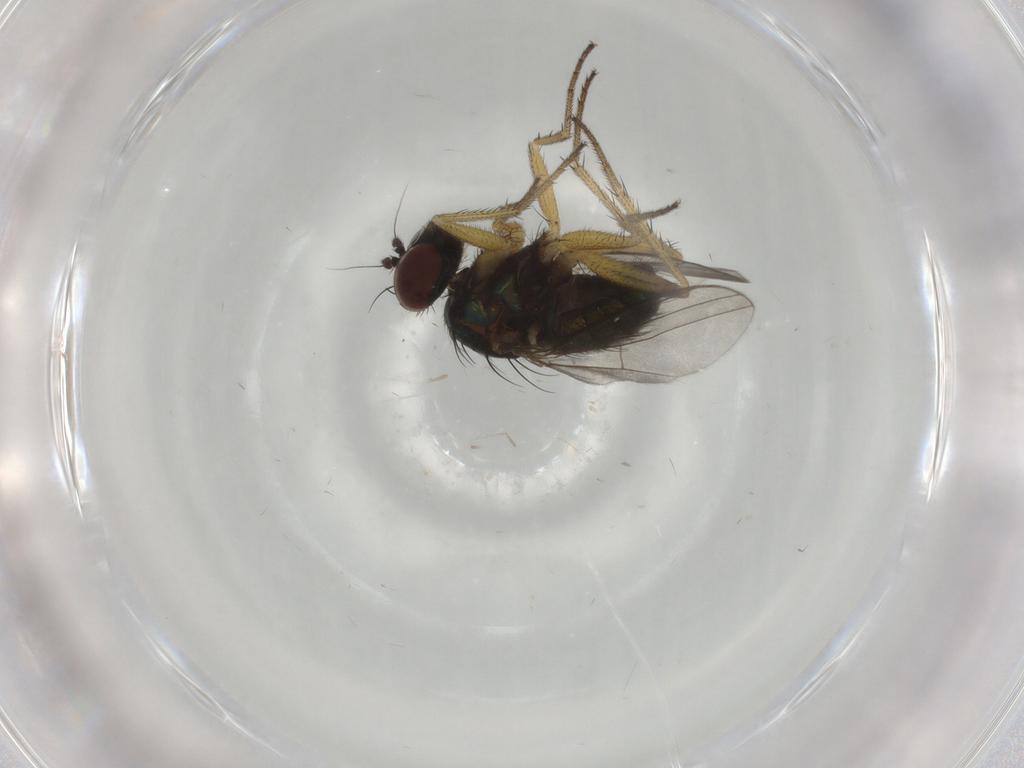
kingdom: Animalia
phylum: Arthropoda
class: Insecta
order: Diptera
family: Dolichopodidae
